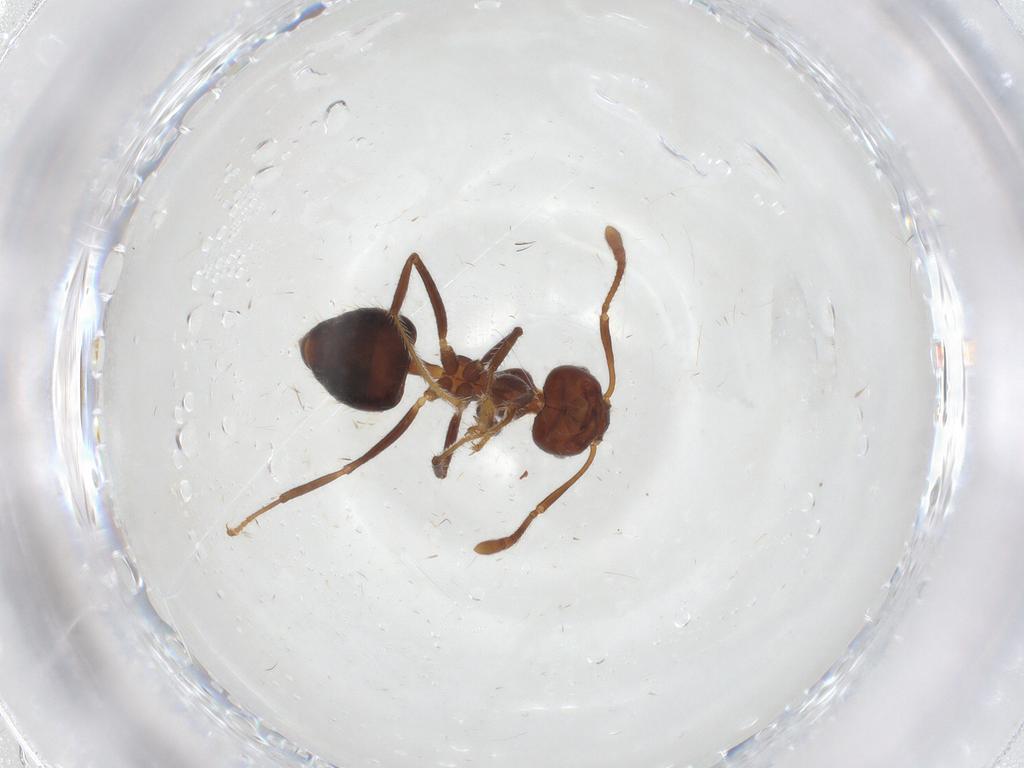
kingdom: Animalia
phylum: Arthropoda
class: Insecta
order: Hymenoptera
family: Formicidae
